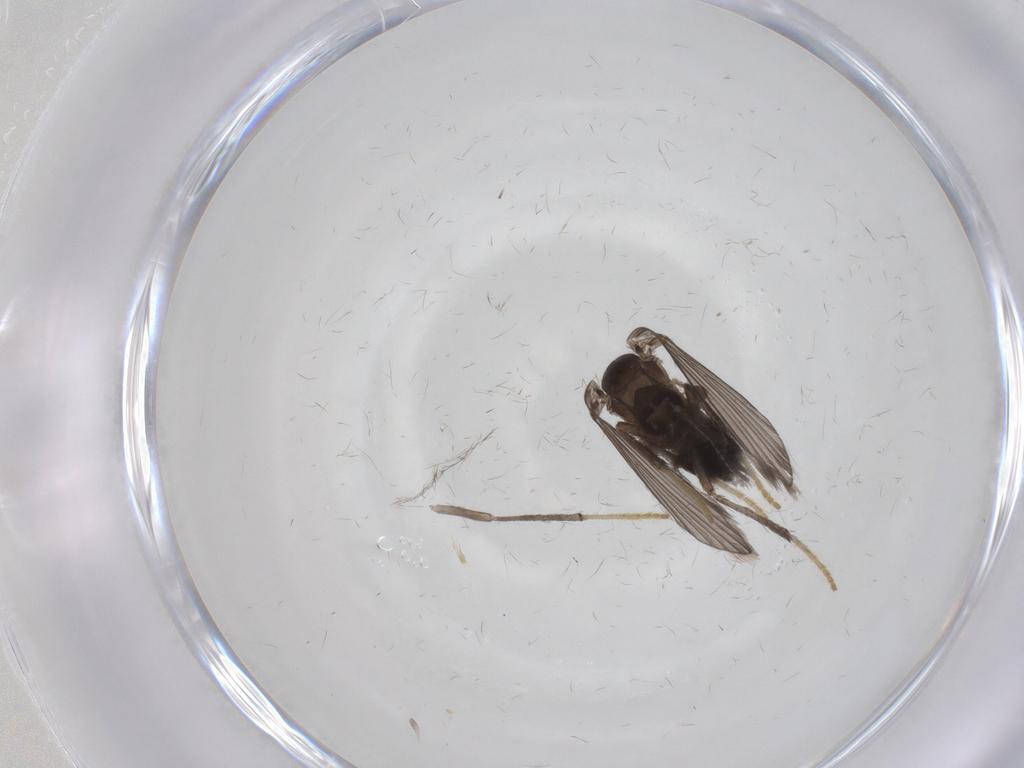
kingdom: Animalia
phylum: Arthropoda
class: Insecta
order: Diptera
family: Psychodidae
